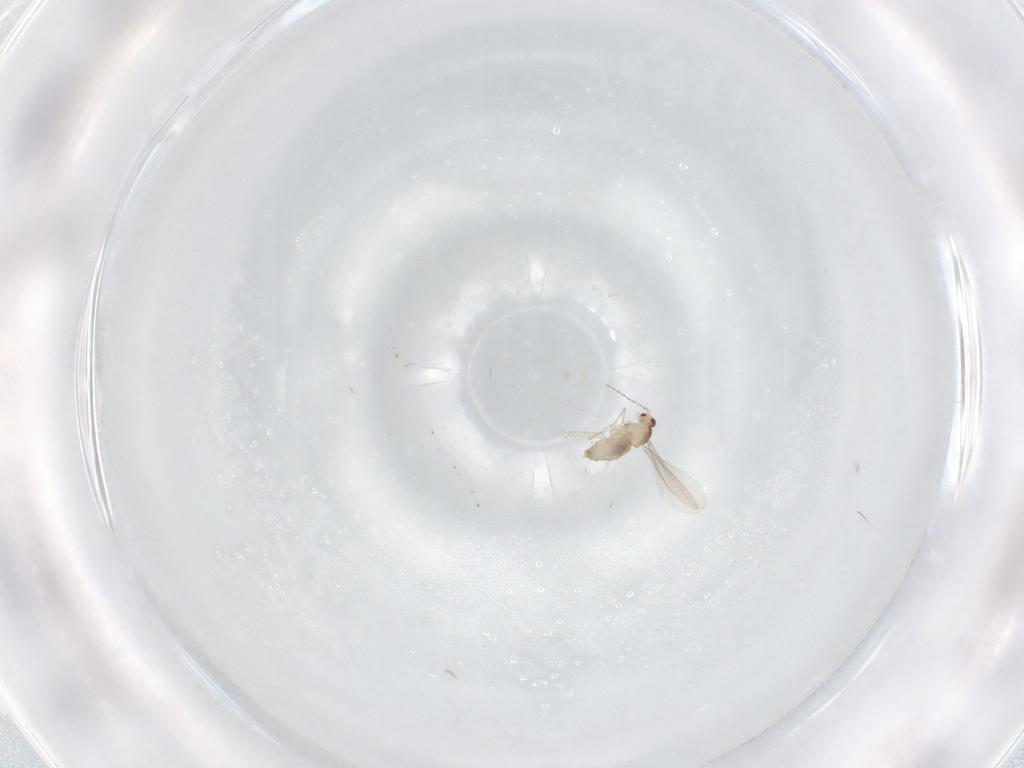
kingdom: Animalia
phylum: Arthropoda
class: Insecta
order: Diptera
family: Cecidomyiidae
